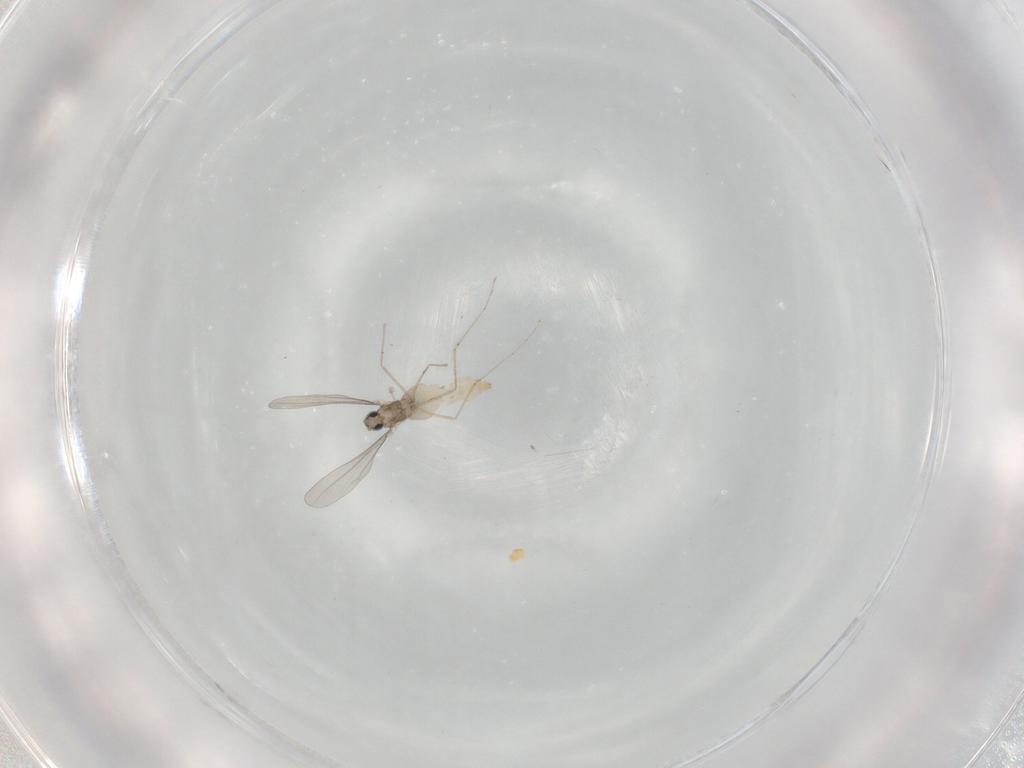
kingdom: Animalia
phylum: Arthropoda
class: Insecta
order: Diptera
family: Cecidomyiidae
